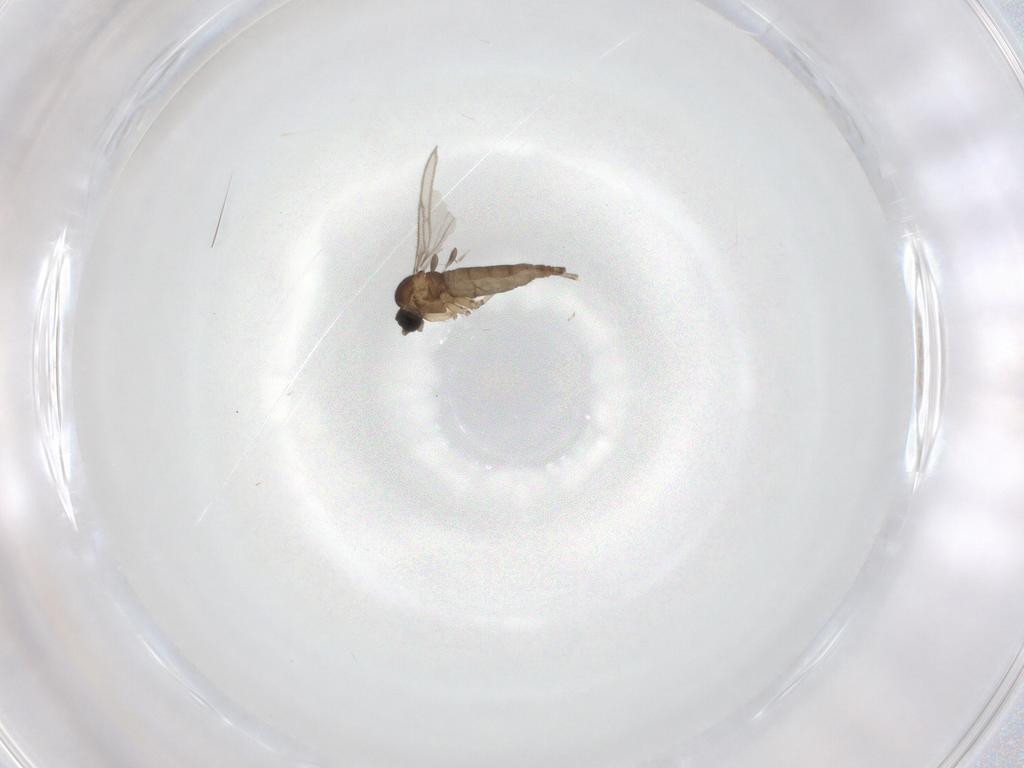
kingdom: Animalia
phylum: Arthropoda
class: Insecta
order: Diptera
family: Sciaridae
